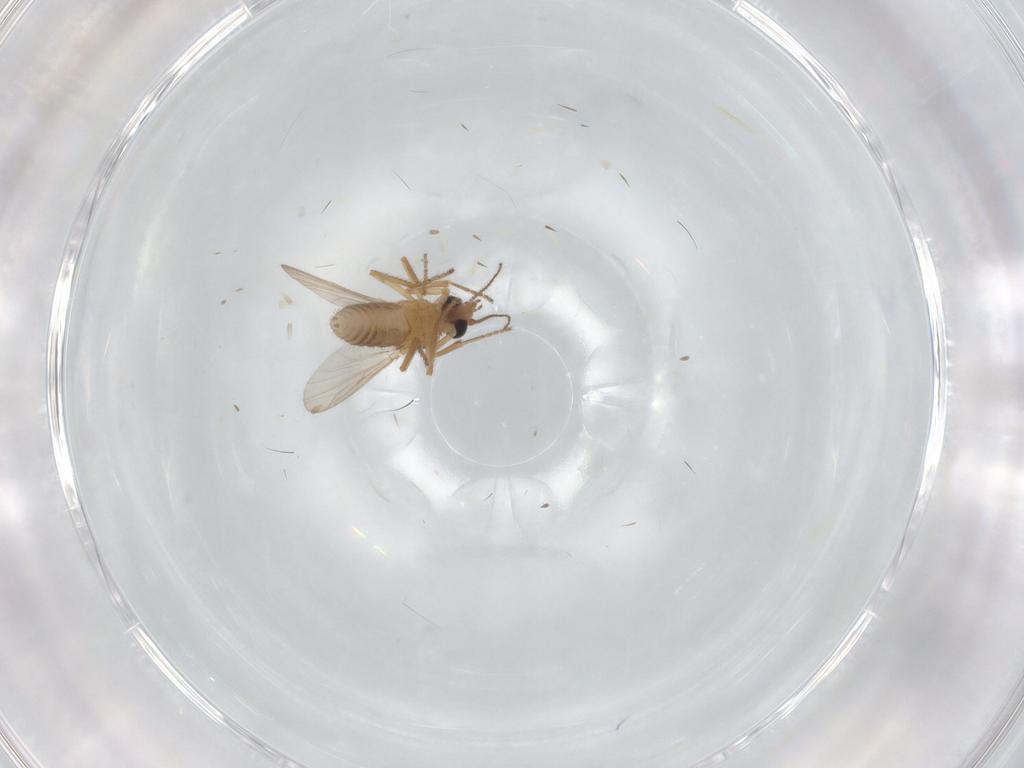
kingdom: Animalia
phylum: Arthropoda
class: Insecta
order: Diptera
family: Ceratopogonidae
